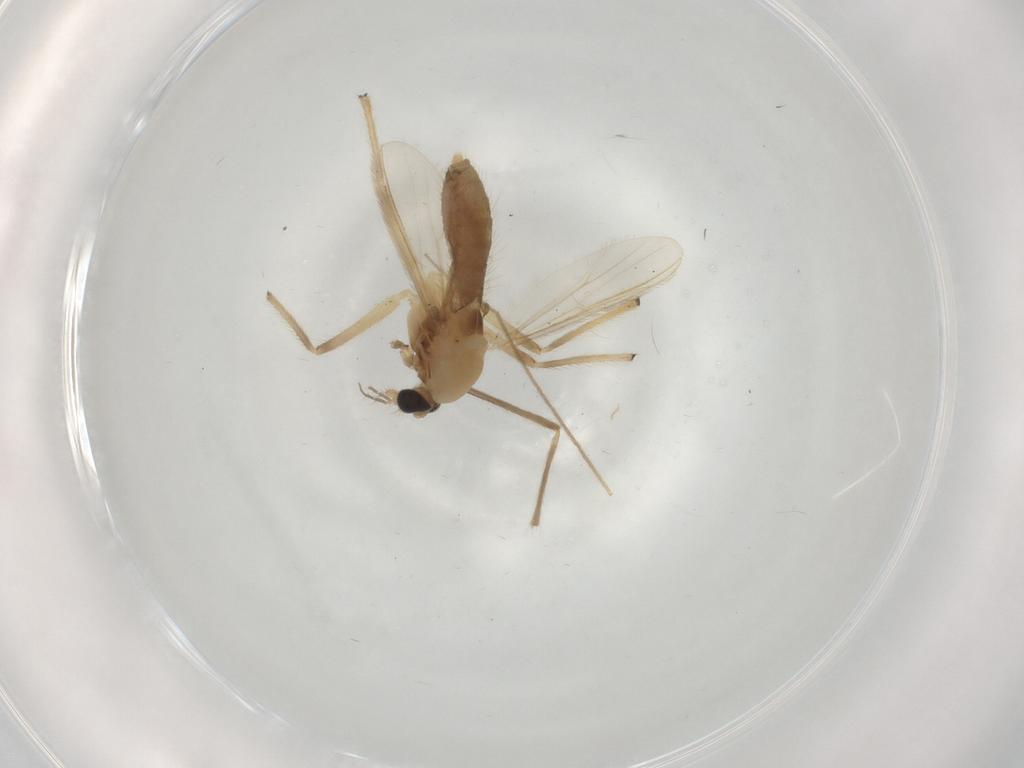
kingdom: Animalia
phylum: Arthropoda
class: Insecta
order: Diptera
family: Chironomidae
